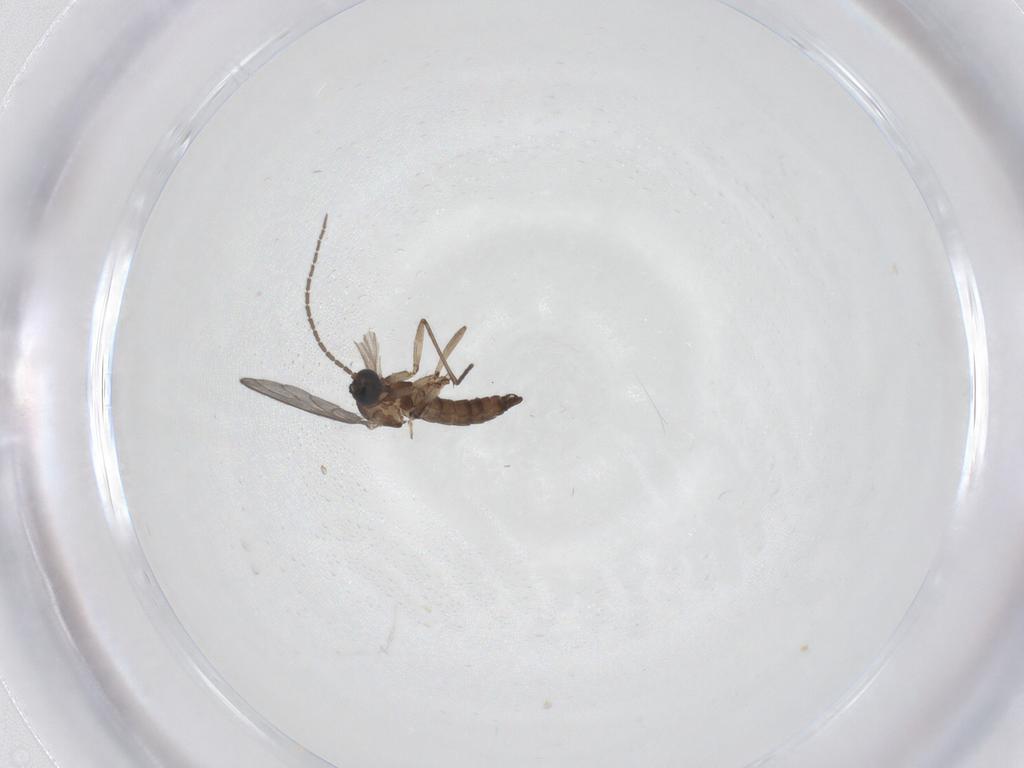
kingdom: Animalia
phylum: Arthropoda
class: Insecta
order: Diptera
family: Sciaridae
